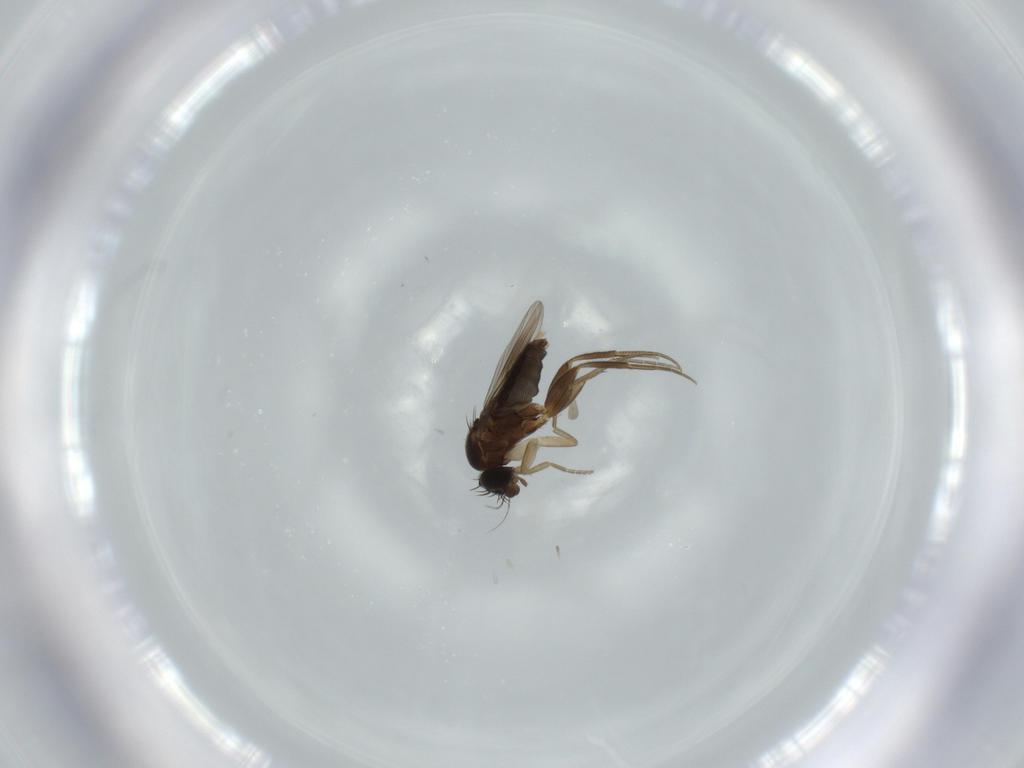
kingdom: Animalia
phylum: Arthropoda
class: Insecta
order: Diptera
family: Phoridae
